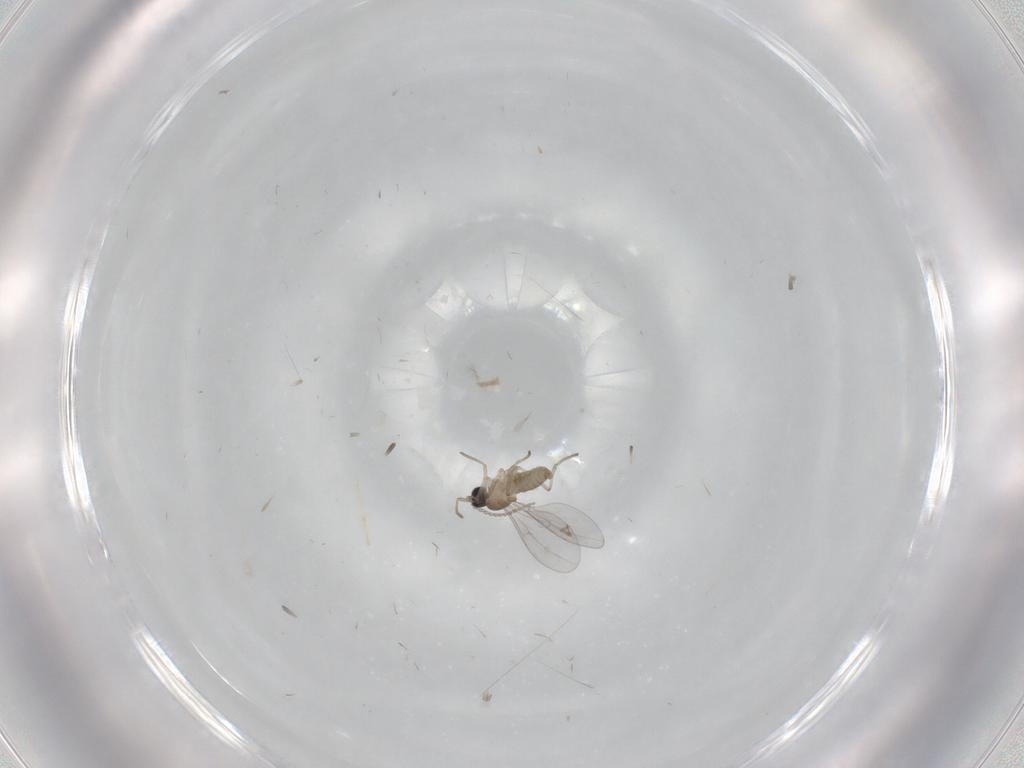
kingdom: Animalia
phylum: Arthropoda
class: Insecta
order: Diptera
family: Cecidomyiidae
